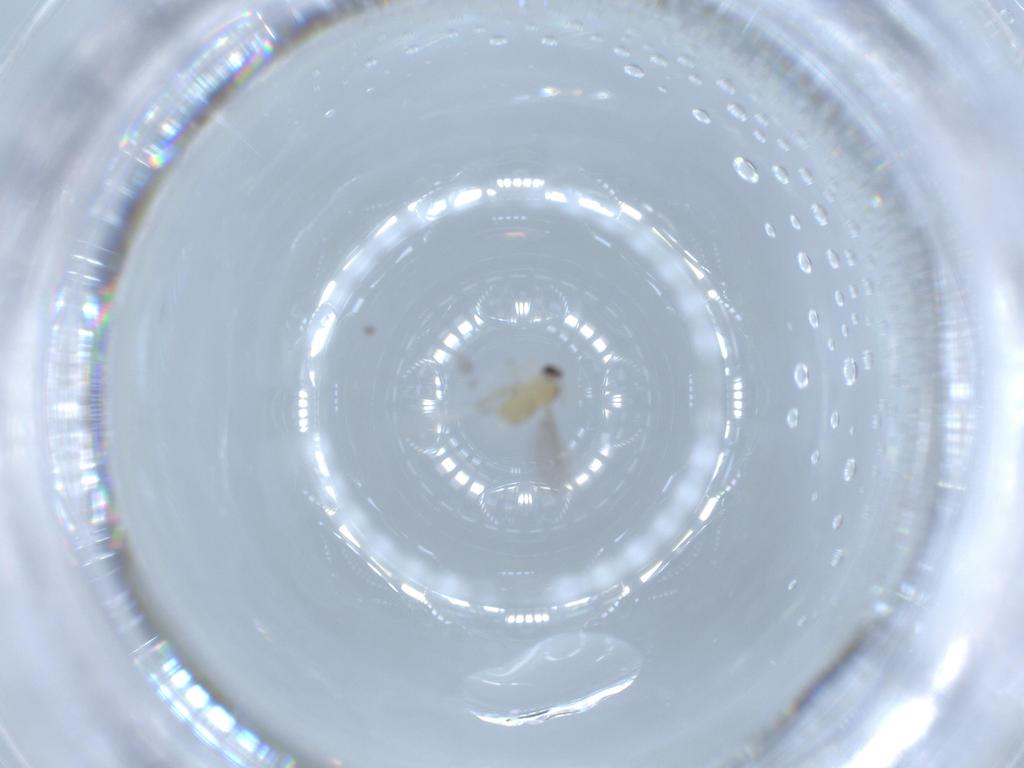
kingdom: Animalia
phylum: Arthropoda
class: Insecta
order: Diptera
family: Cecidomyiidae
